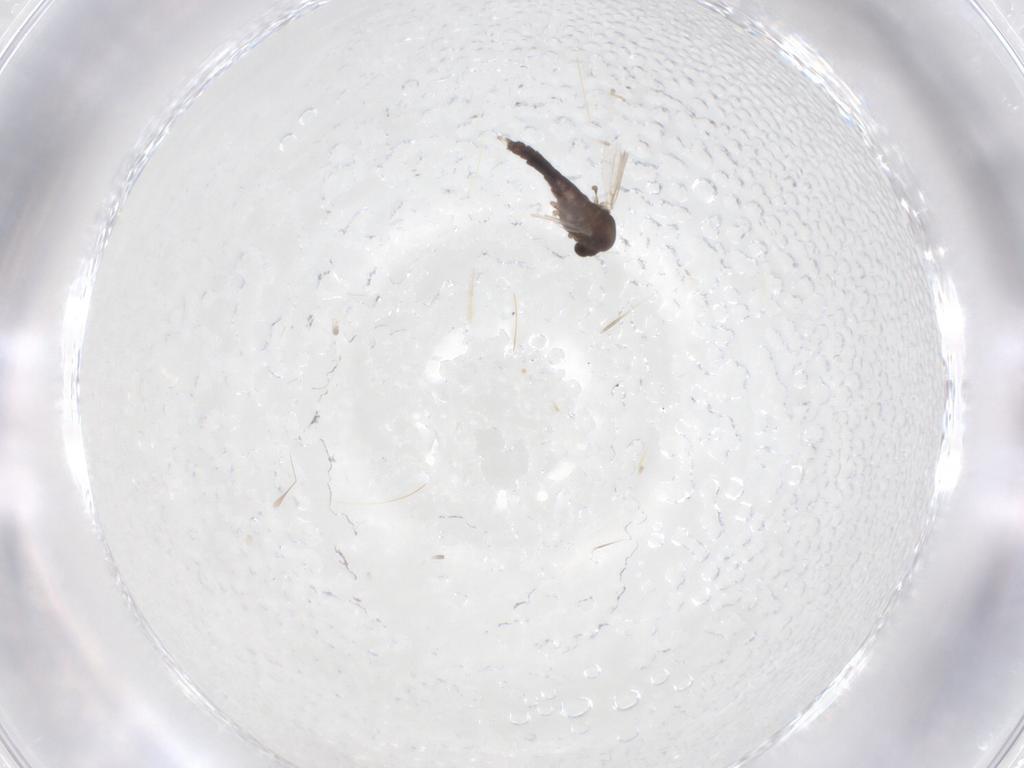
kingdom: Animalia
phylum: Arthropoda
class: Insecta
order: Diptera
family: Chironomidae
